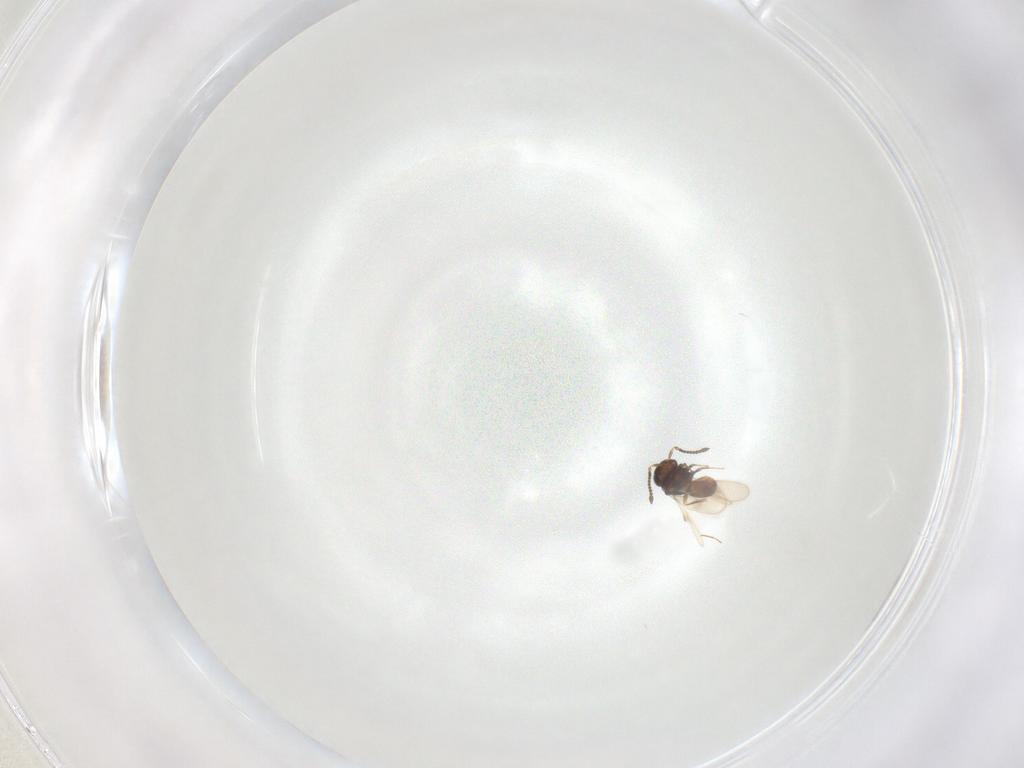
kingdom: Animalia
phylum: Arthropoda
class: Insecta
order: Hymenoptera
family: Scelionidae
